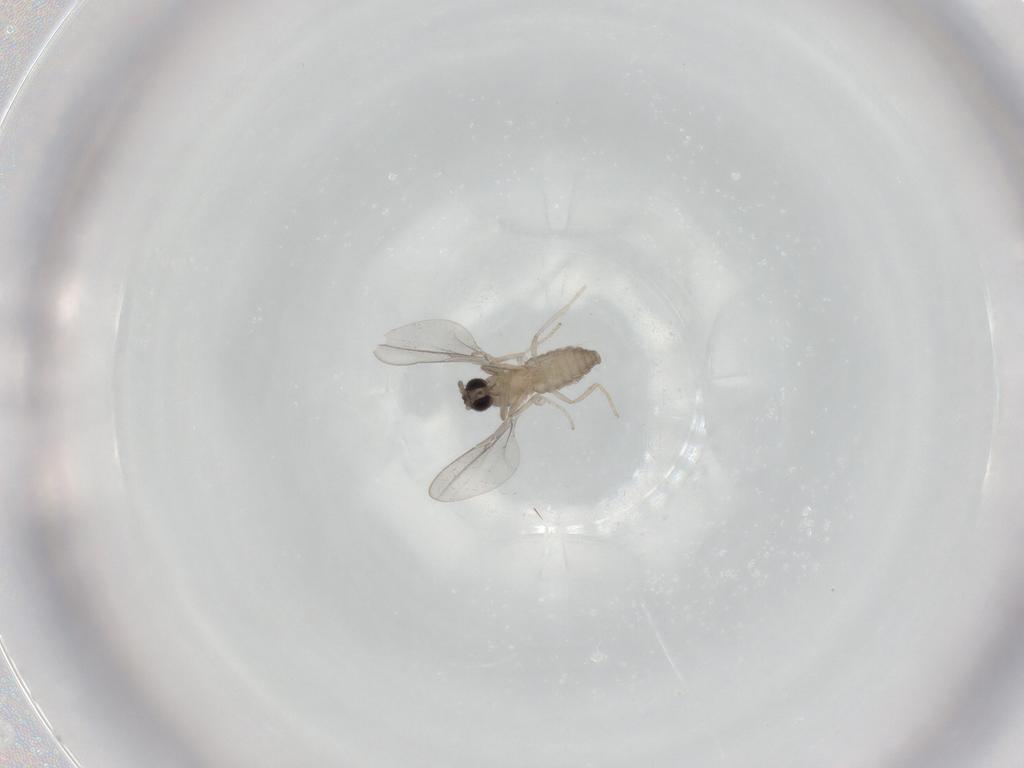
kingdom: Animalia
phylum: Arthropoda
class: Insecta
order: Diptera
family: Cecidomyiidae
